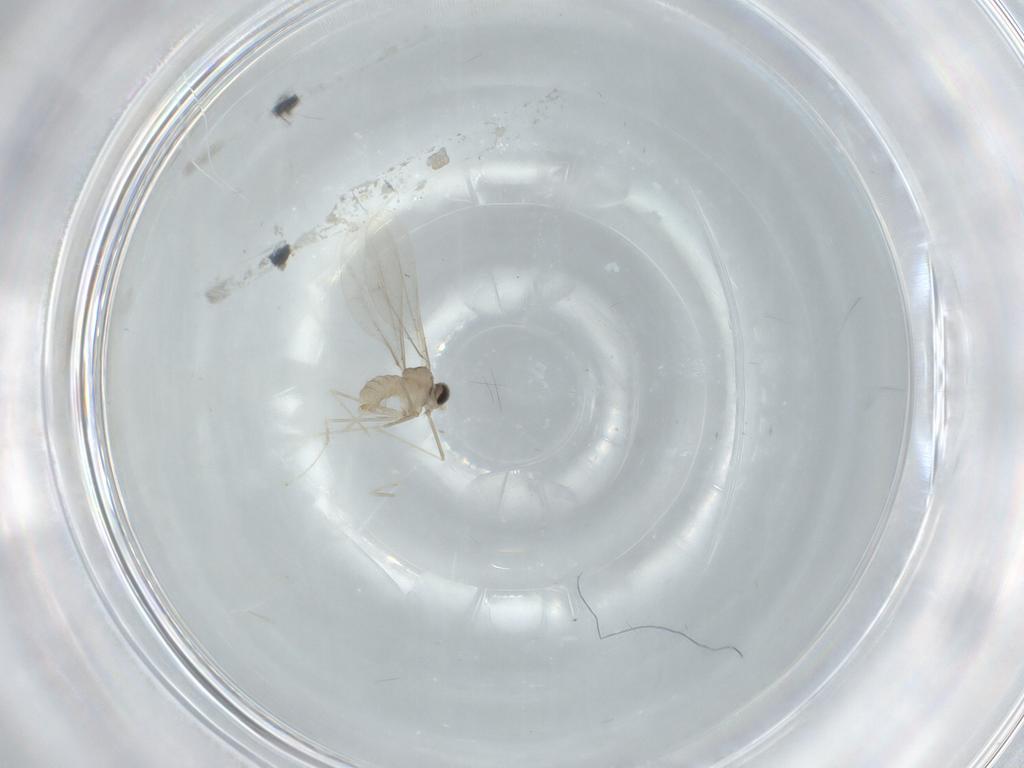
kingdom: Animalia
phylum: Arthropoda
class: Insecta
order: Diptera
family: Cecidomyiidae
